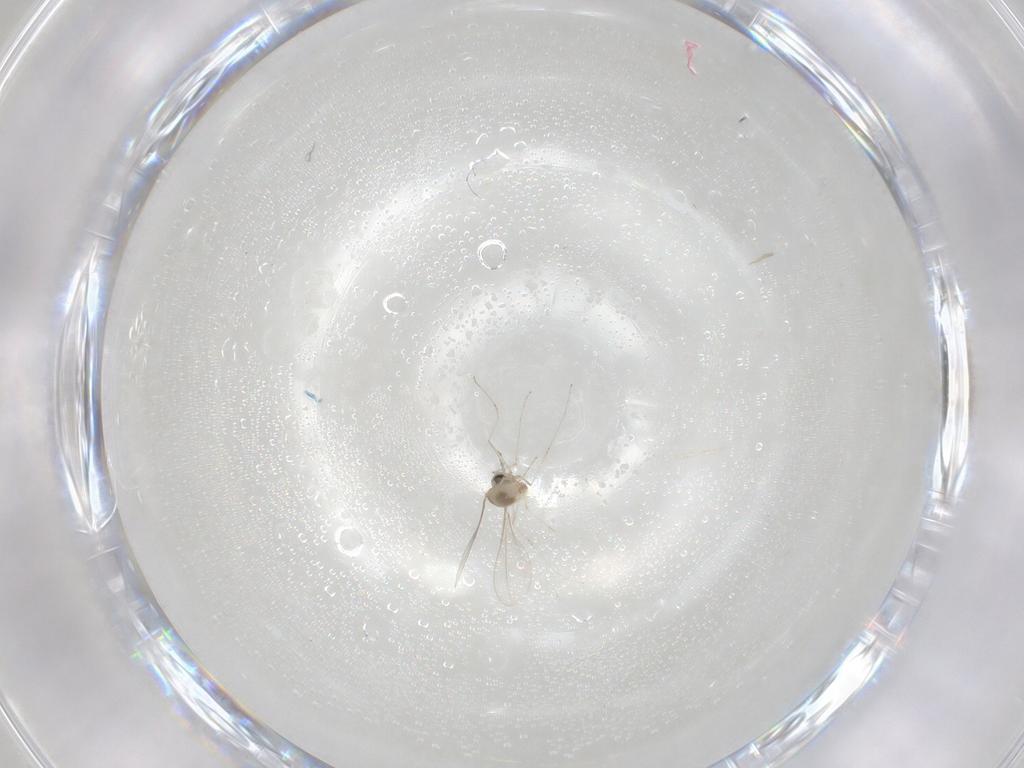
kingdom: Animalia
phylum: Arthropoda
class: Insecta
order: Diptera
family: Cecidomyiidae
